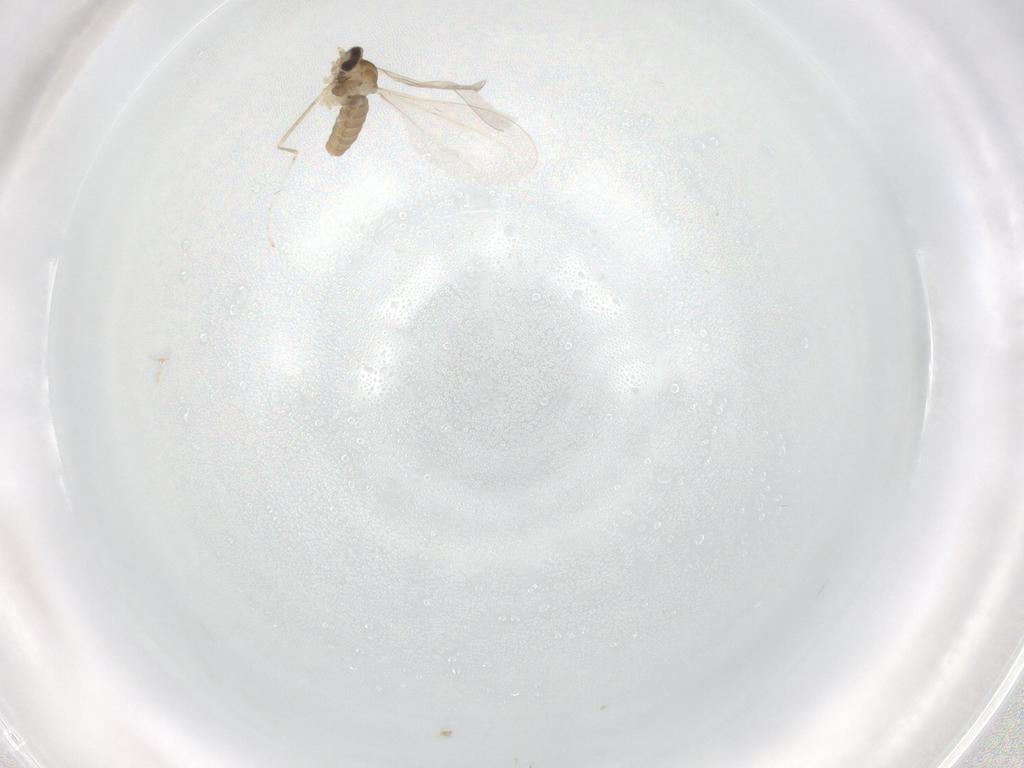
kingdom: Animalia
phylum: Arthropoda
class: Insecta
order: Diptera
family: Cecidomyiidae
